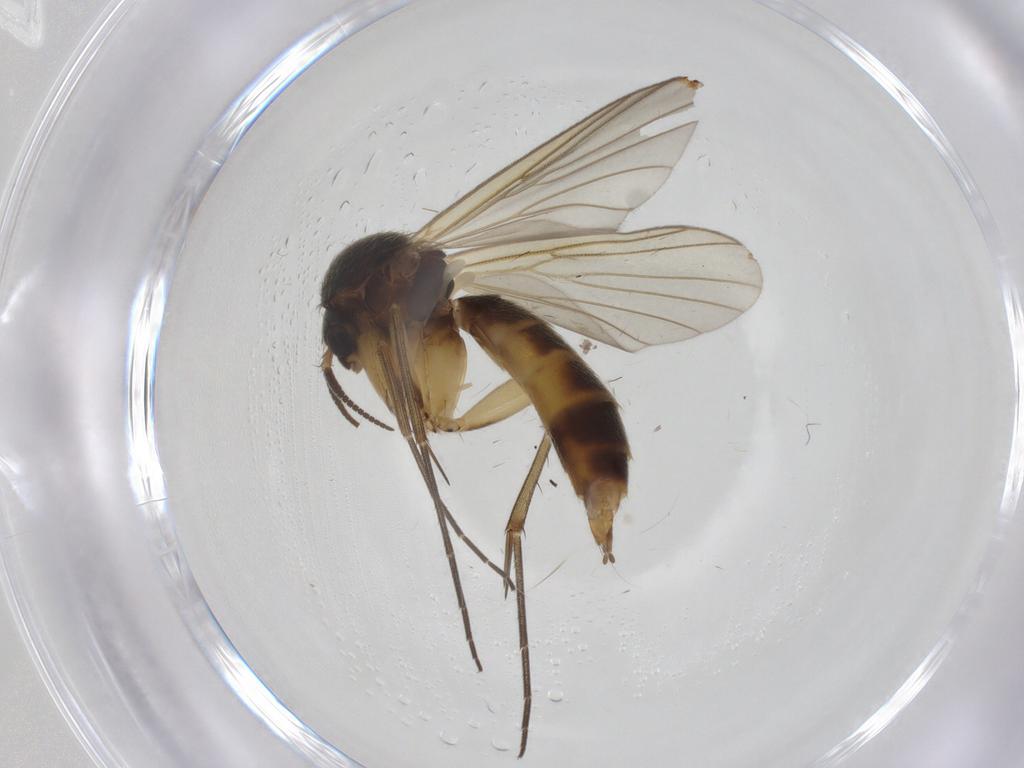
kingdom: Animalia
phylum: Arthropoda
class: Insecta
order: Diptera
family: Mycetophilidae
